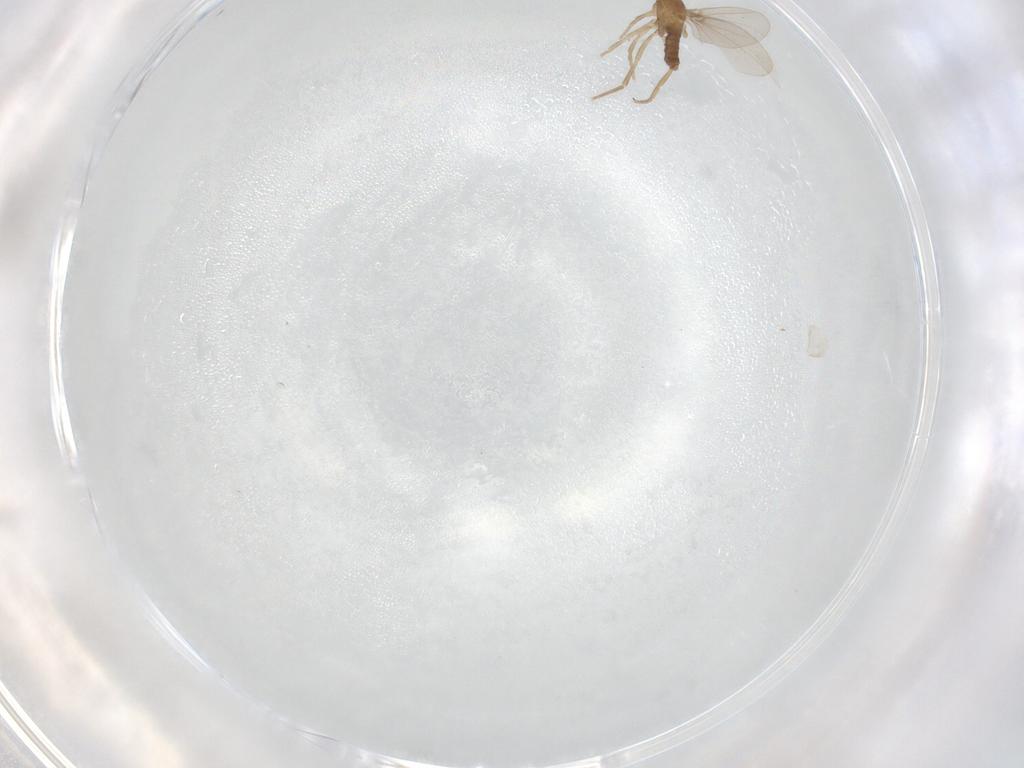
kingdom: Animalia
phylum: Arthropoda
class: Insecta
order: Diptera
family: Phoridae
